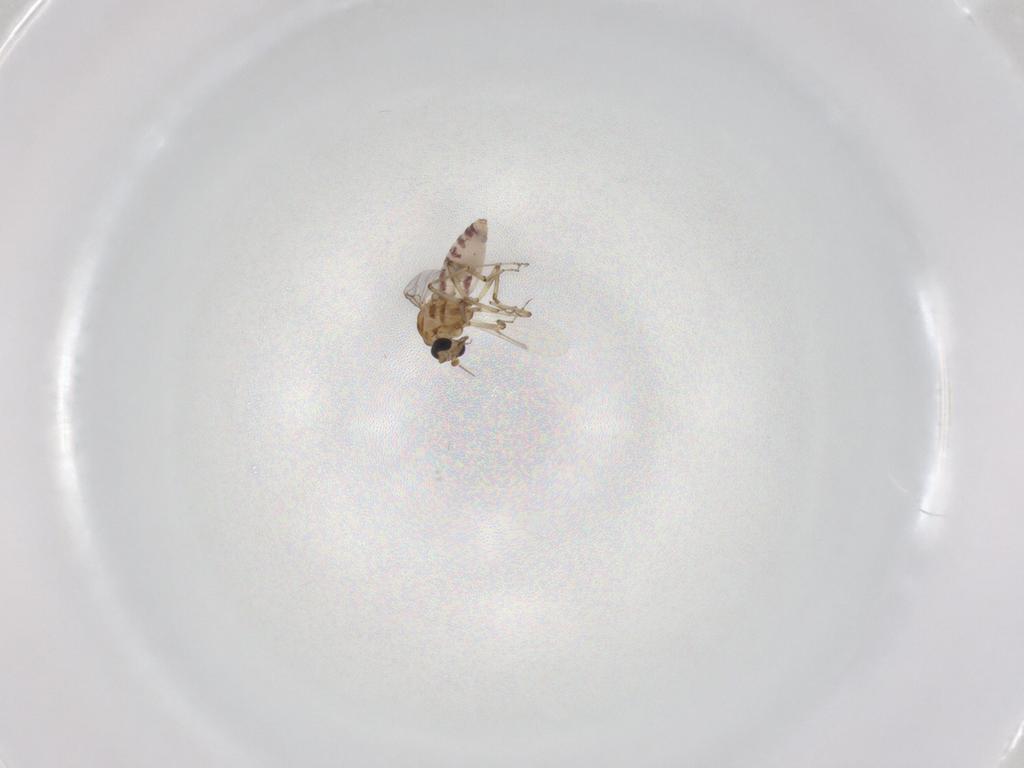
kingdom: Animalia
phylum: Arthropoda
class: Insecta
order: Diptera
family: Ceratopogonidae
